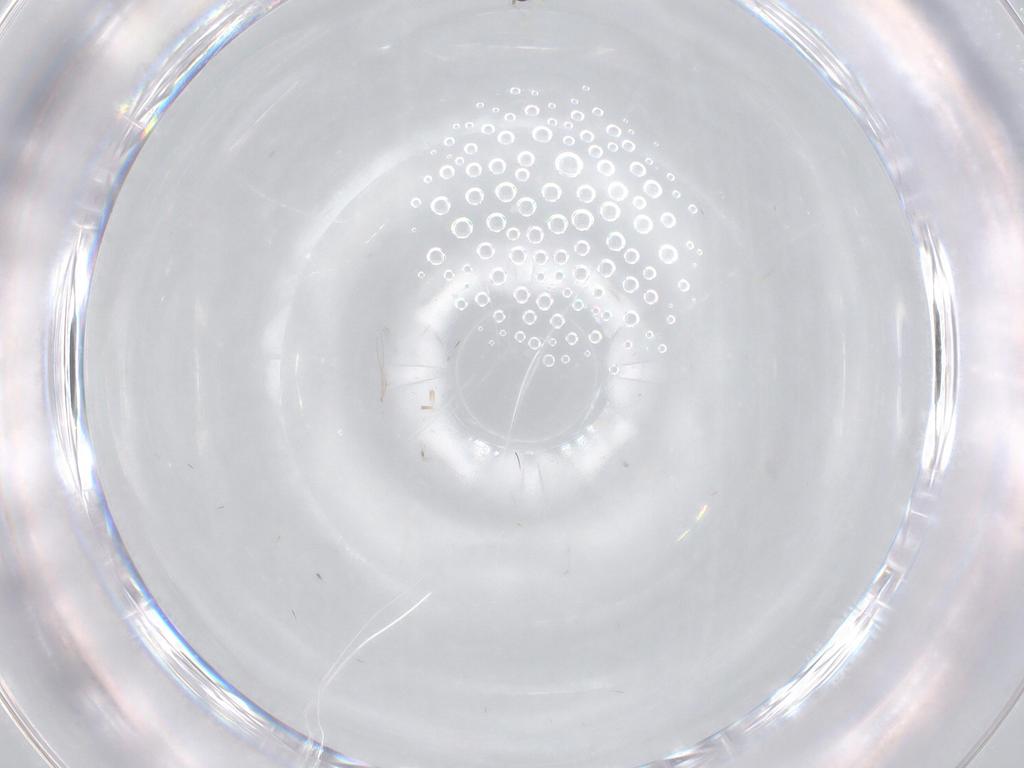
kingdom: Animalia
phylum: Arthropoda
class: Insecta
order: Diptera
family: Cecidomyiidae
